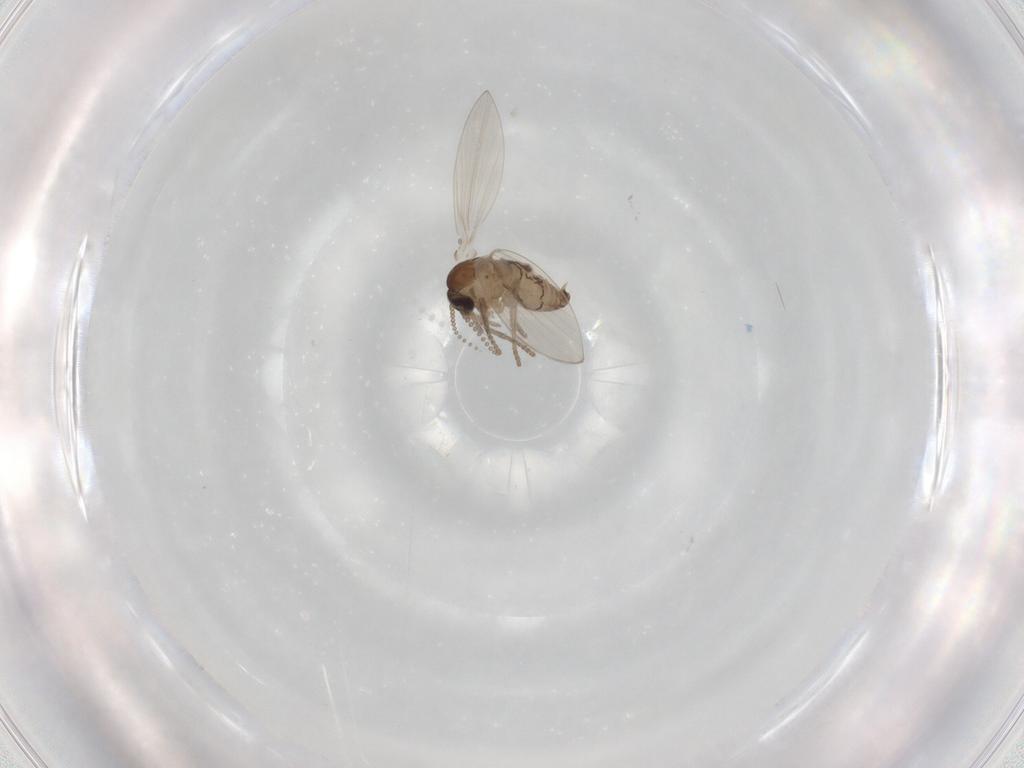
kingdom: Animalia
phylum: Arthropoda
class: Insecta
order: Diptera
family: Psychodidae
